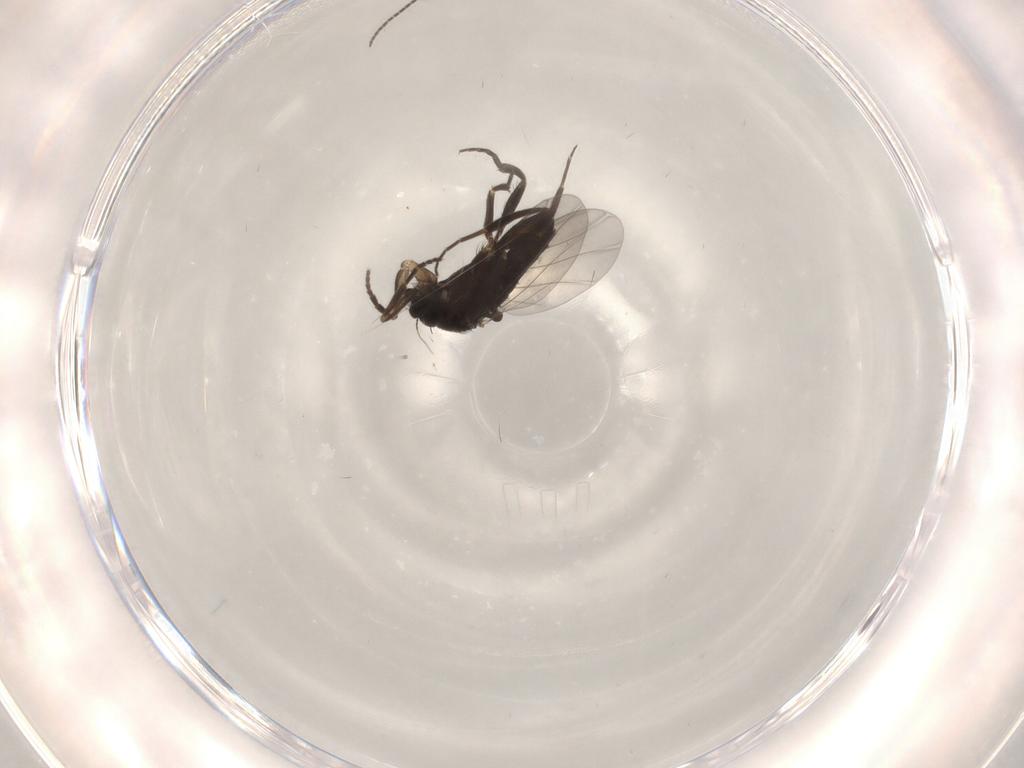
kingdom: Animalia
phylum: Arthropoda
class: Insecta
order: Diptera
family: Phoridae
